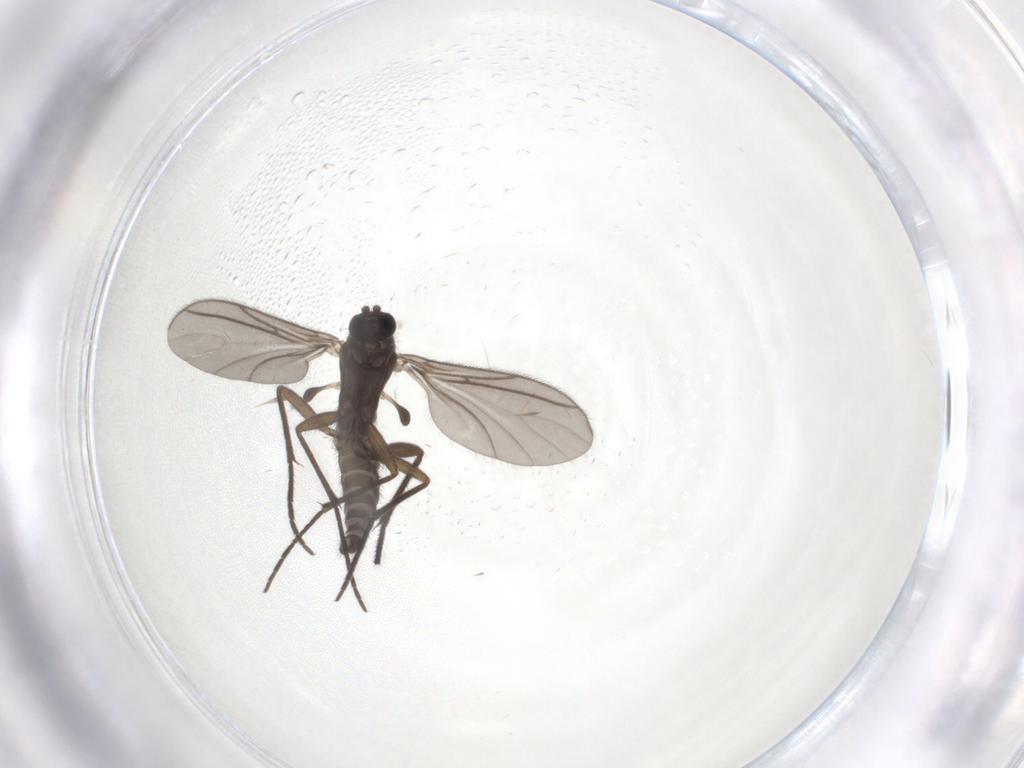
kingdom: Animalia
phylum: Arthropoda
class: Insecta
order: Diptera
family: Sciaridae
